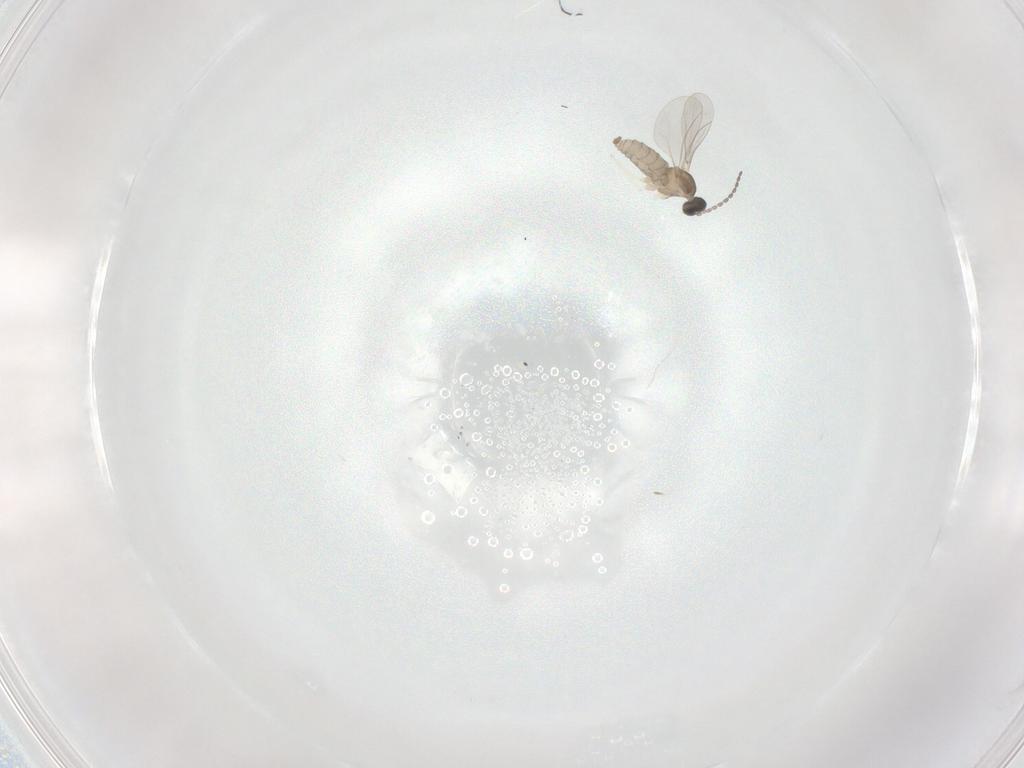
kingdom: Animalia
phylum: Arthropoda
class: Insecta
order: Diptera
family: Cecidomyiidae
